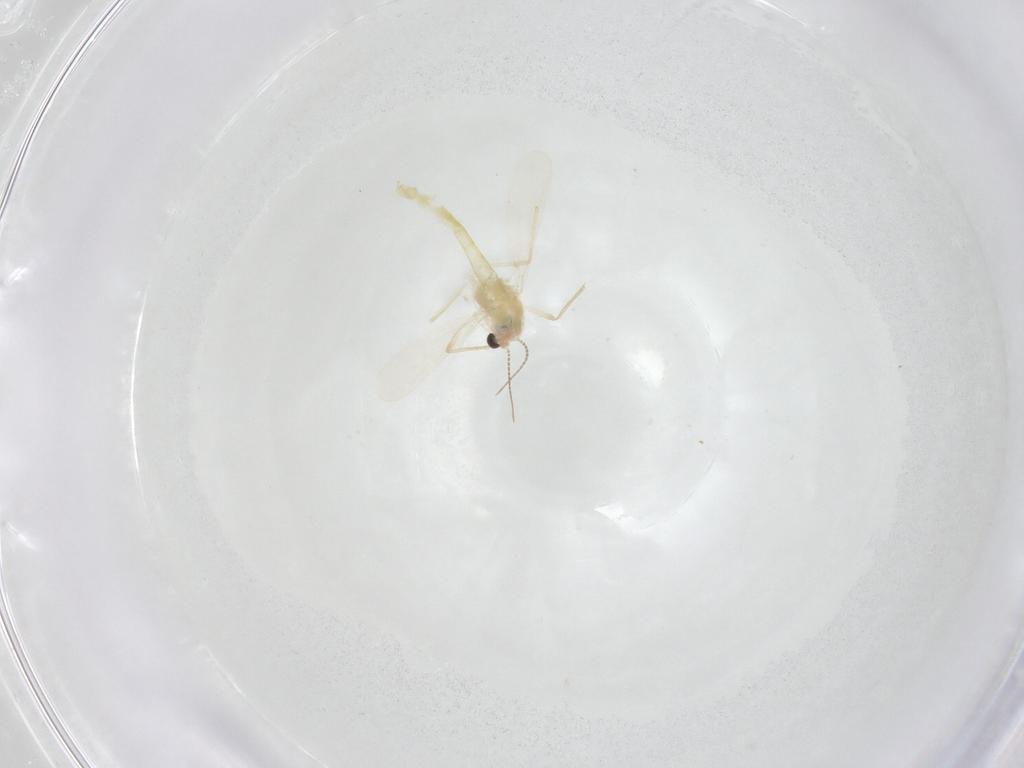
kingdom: Animalia
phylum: Arthropoda
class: Insecta
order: Diptera
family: Chironomidae
